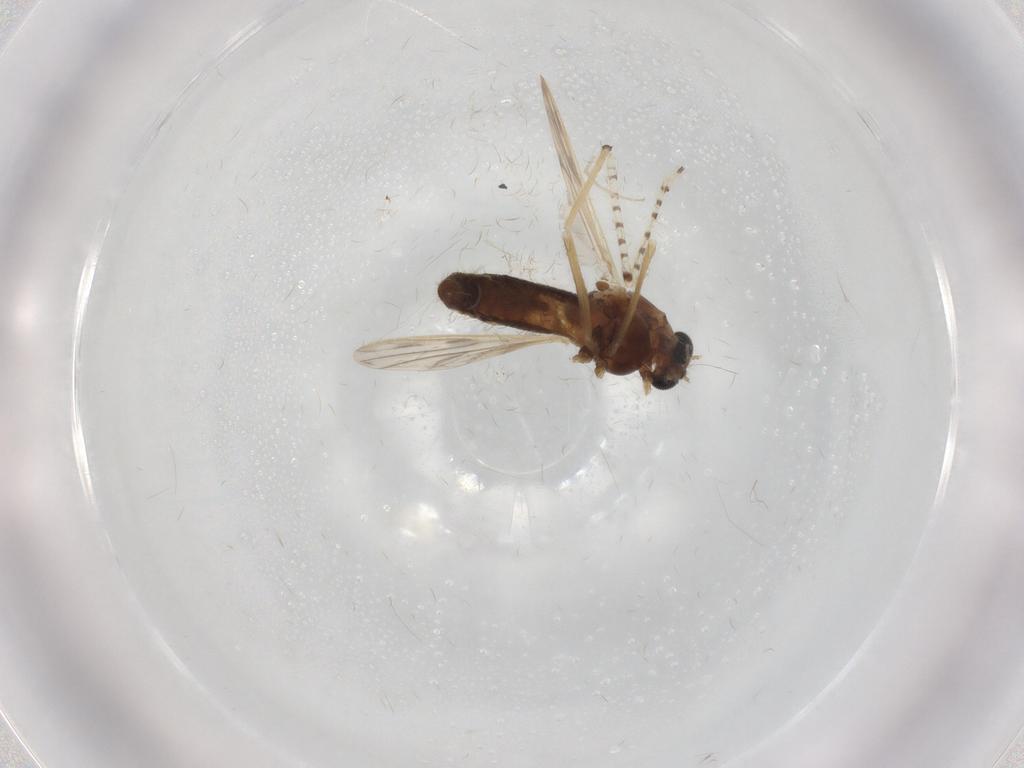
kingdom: Animalia
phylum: Arthropoda
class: Insecta
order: Diptera
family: Chironomidae
